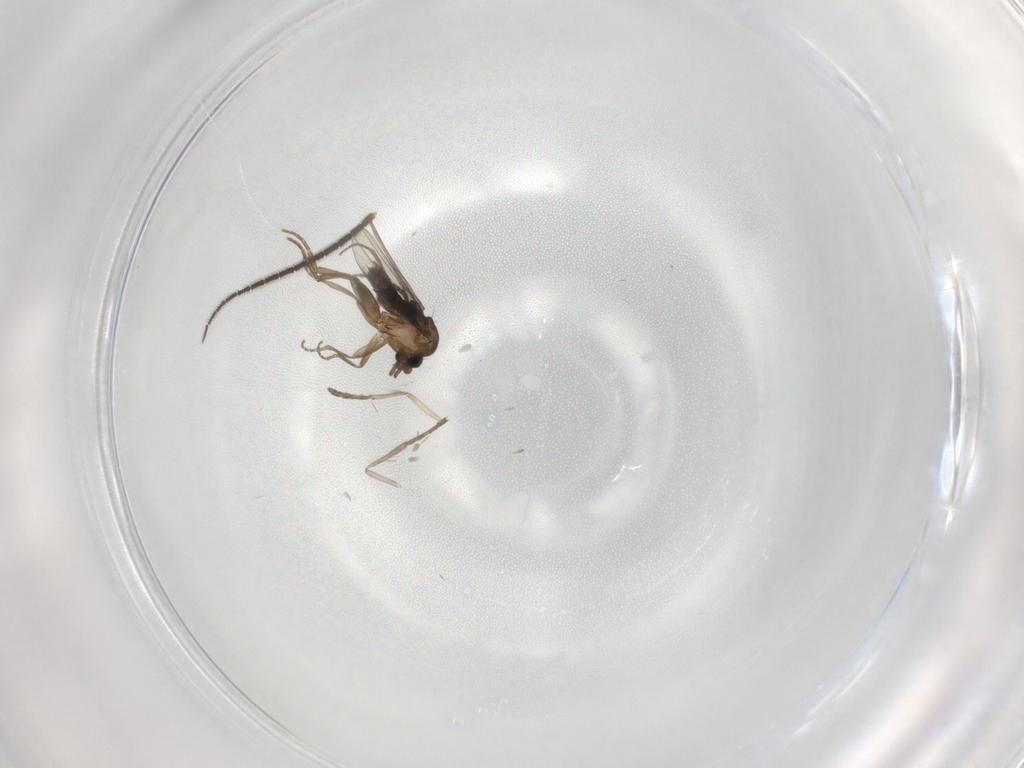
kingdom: Animalia
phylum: Arthropoda
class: Insecta
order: Diptera
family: Sciaridae
